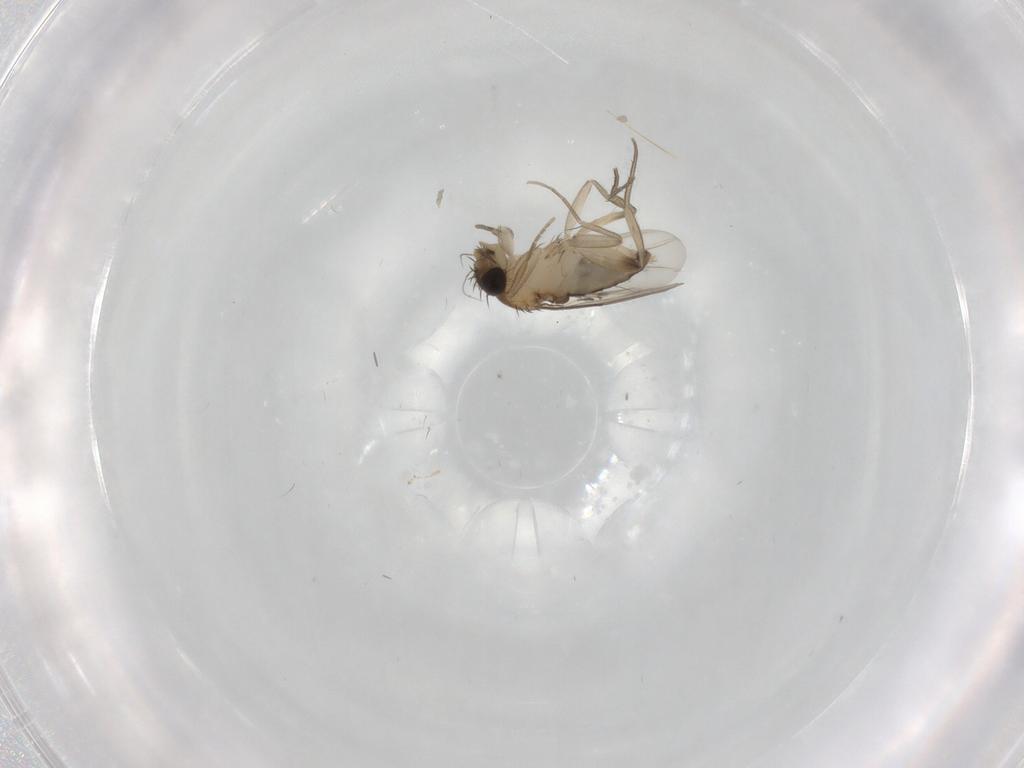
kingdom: Animalia
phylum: Arthropoda
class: Insecta
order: Diptera
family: Phoridae
